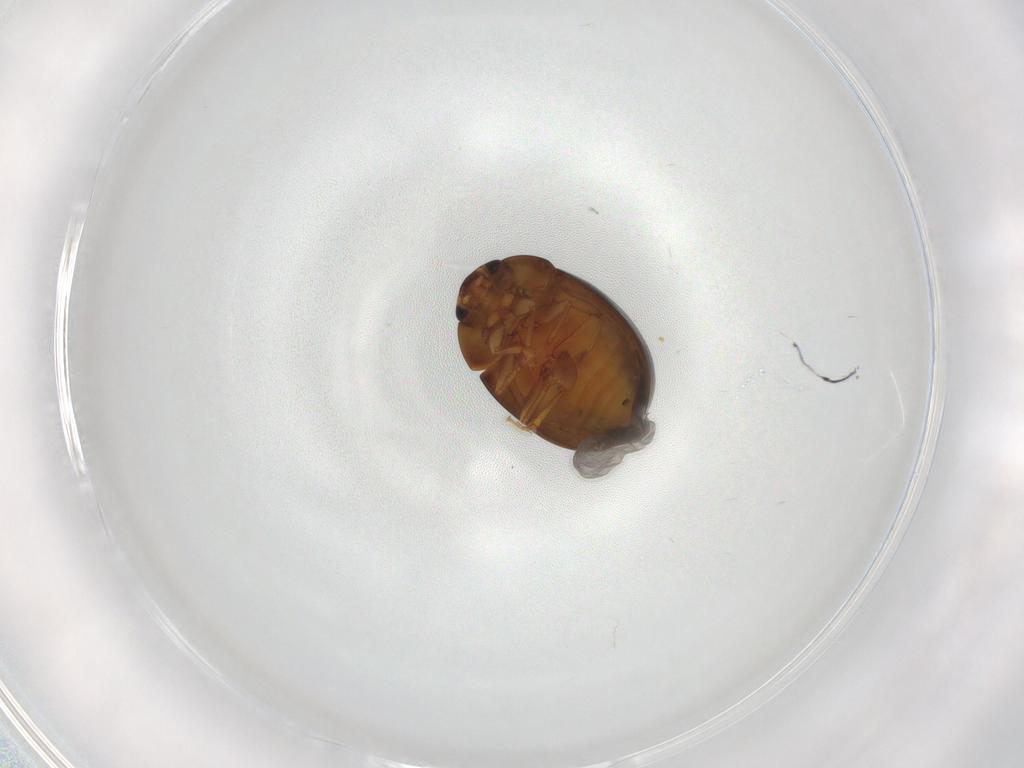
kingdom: Animalia
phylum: Arthropoda
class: Insecta
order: Coleoptera
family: Phalacridae
